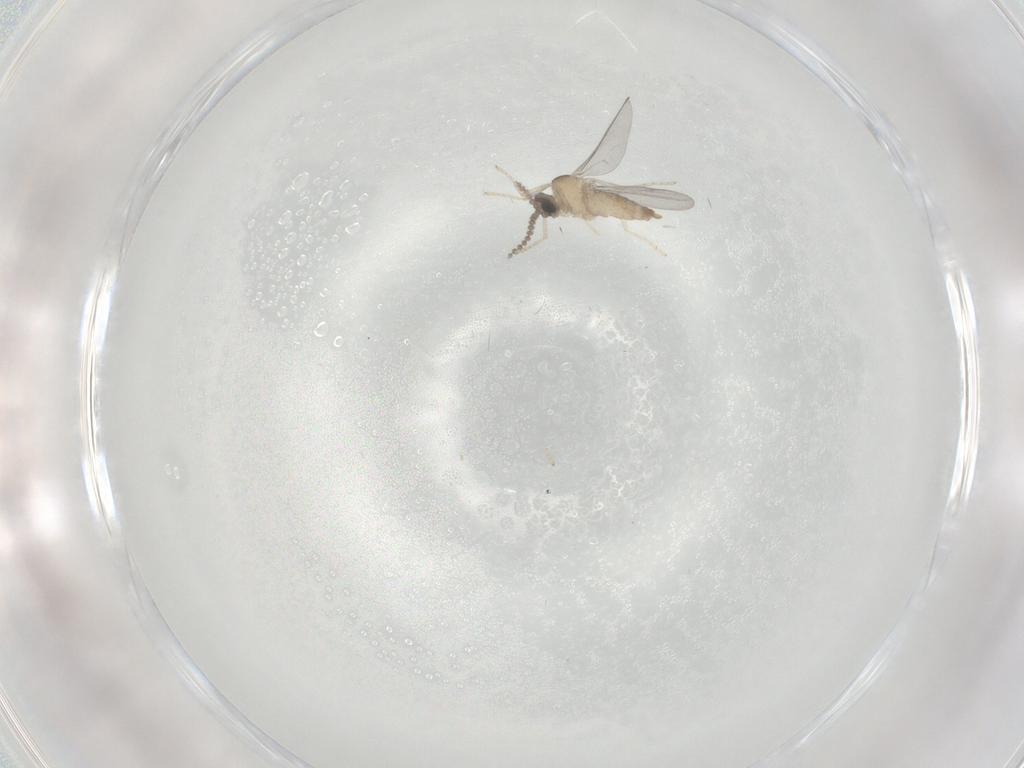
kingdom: Animalia
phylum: Arthropoda
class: Insecta
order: Diptera
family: Cecidomyiidae
